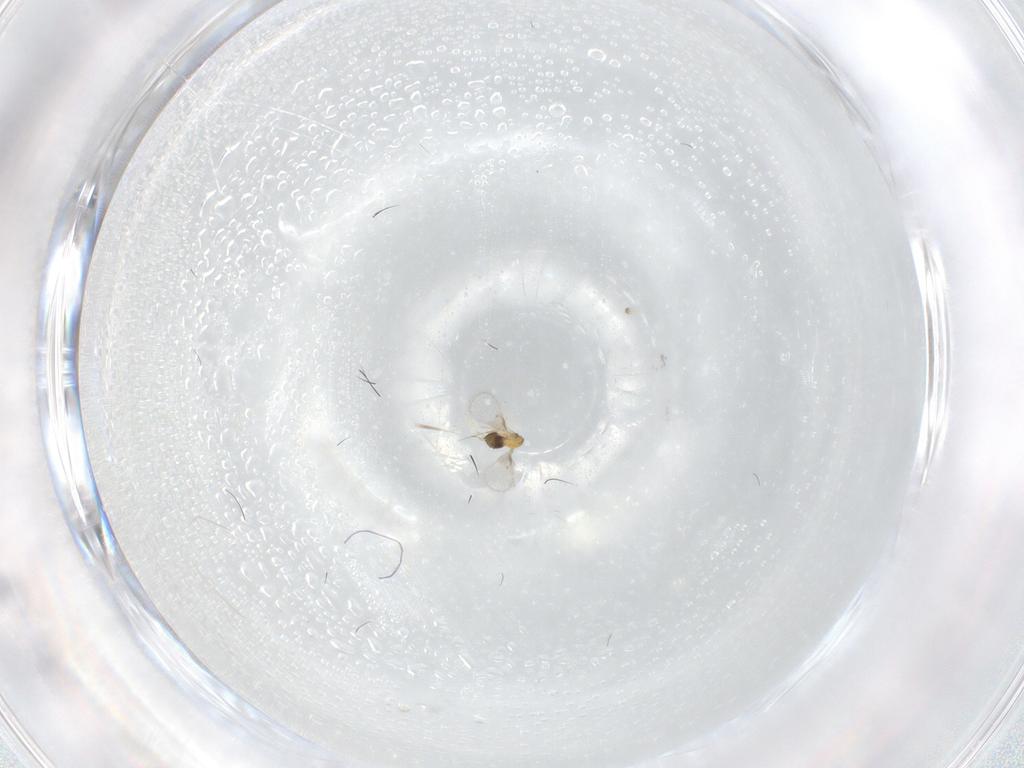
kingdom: Animalia
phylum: Arthropoda
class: Insecta
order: Hymenoptera
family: Trichogrammatidae
